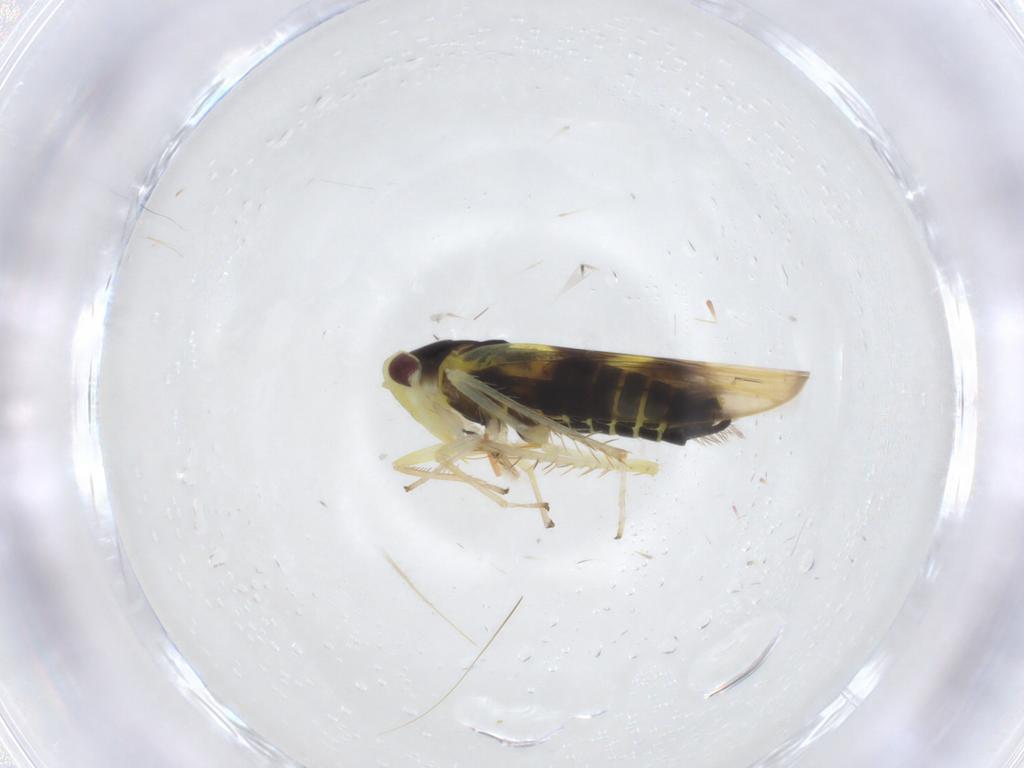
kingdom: Animalia
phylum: Arthropoda
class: Insecta
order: Hemiptera
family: Cicadellidae
